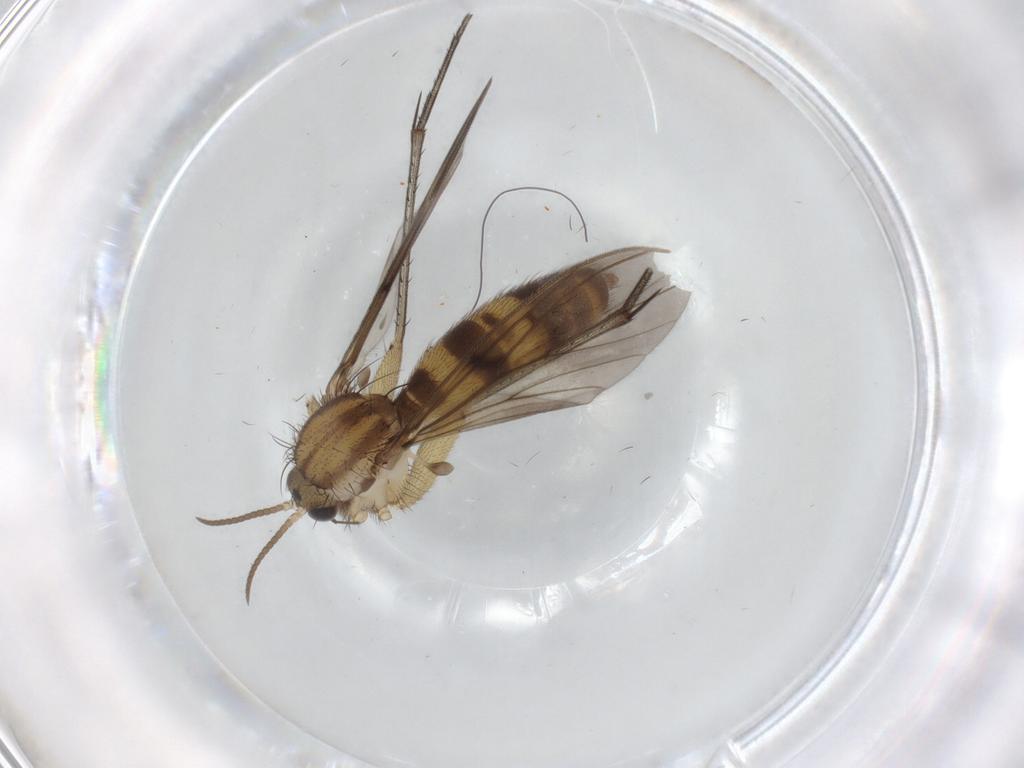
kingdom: Animalia
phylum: Arthropoda
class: Insecta
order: Diptera
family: Mycetophilidae
